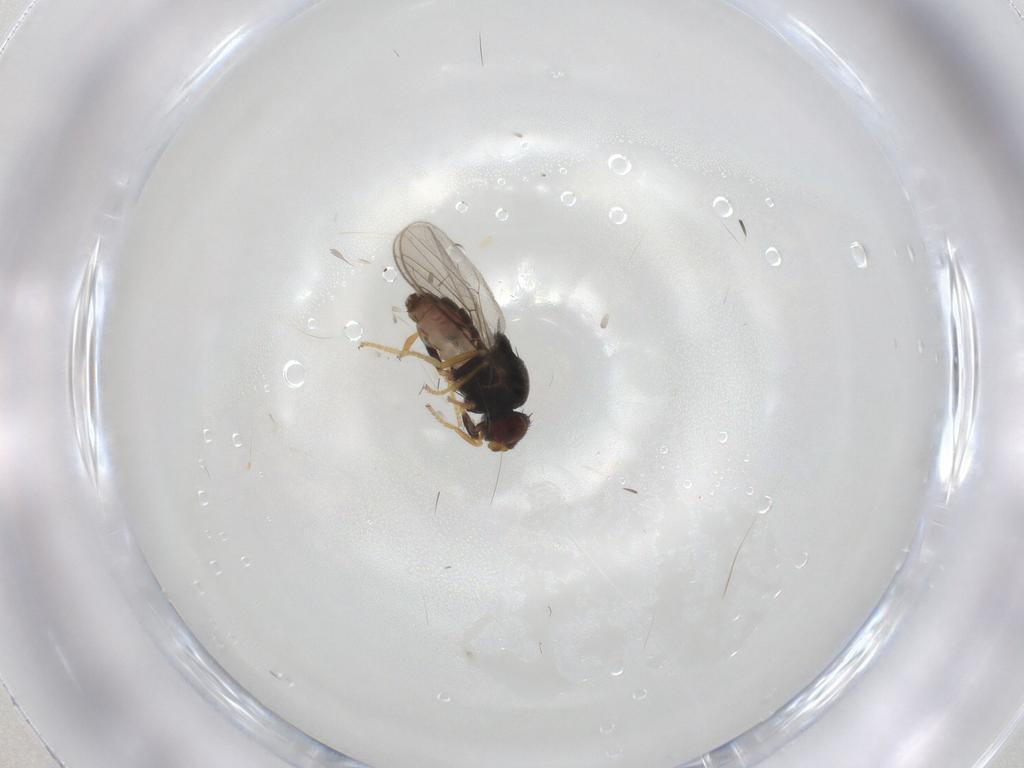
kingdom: Animalia
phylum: Arthropoda
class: Insecta
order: Diptera
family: Chloropidae
